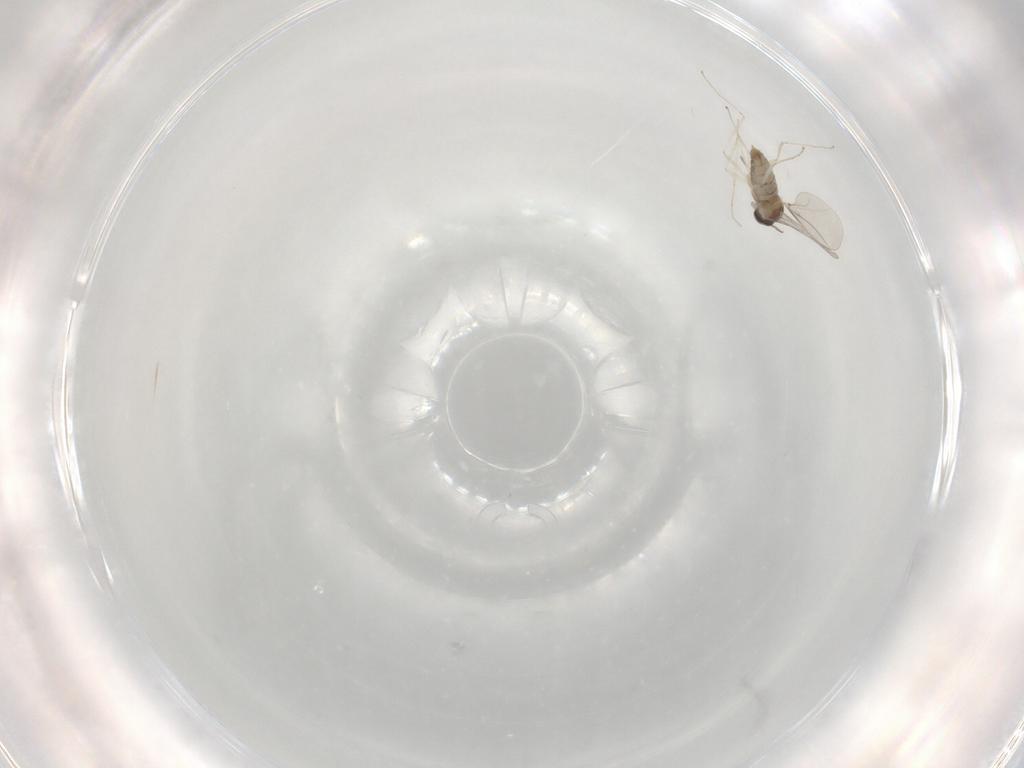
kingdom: Animalia
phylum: Arthropoda
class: Insecta
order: Diptera
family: Cecidomyiidae
